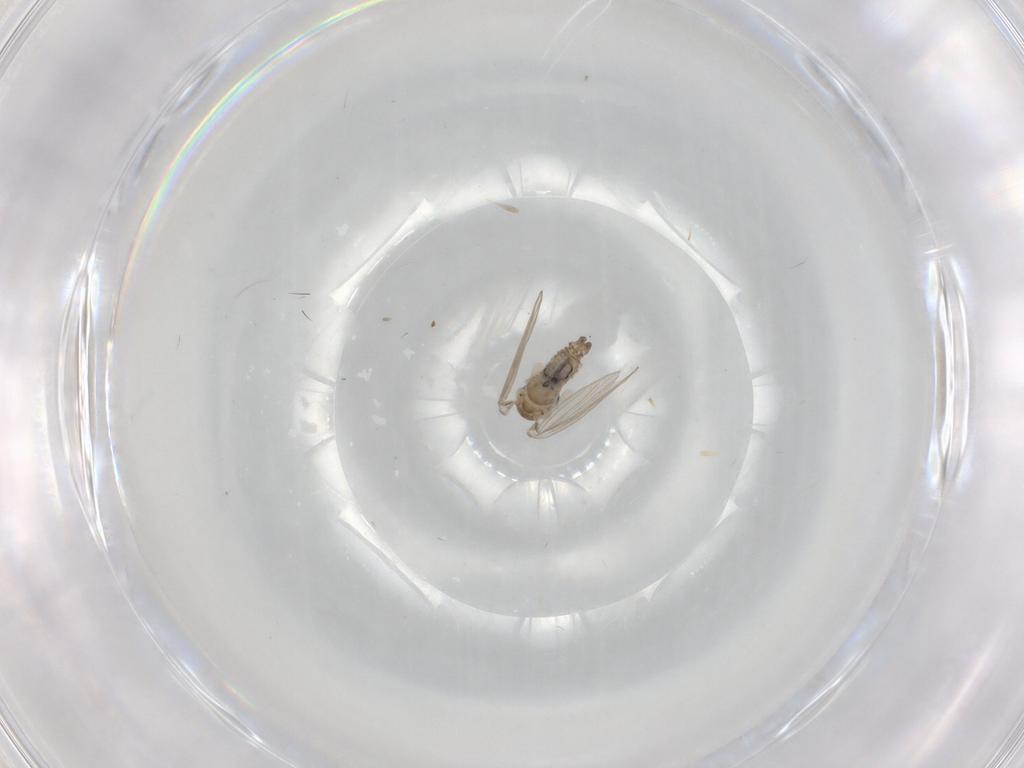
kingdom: Animalia
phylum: Arthropoda
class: Insecta
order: Diptera
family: Psychodidae
